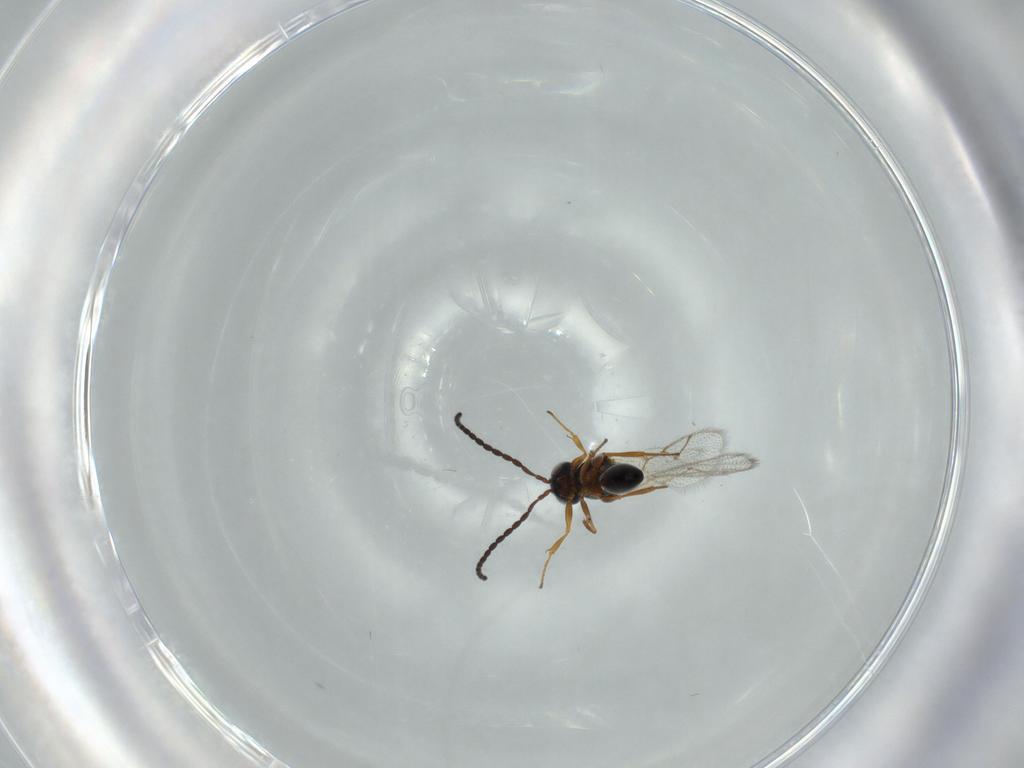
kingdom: Animalia
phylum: Arthropoda
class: Insecta
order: Hymenoptera
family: Figitidae
